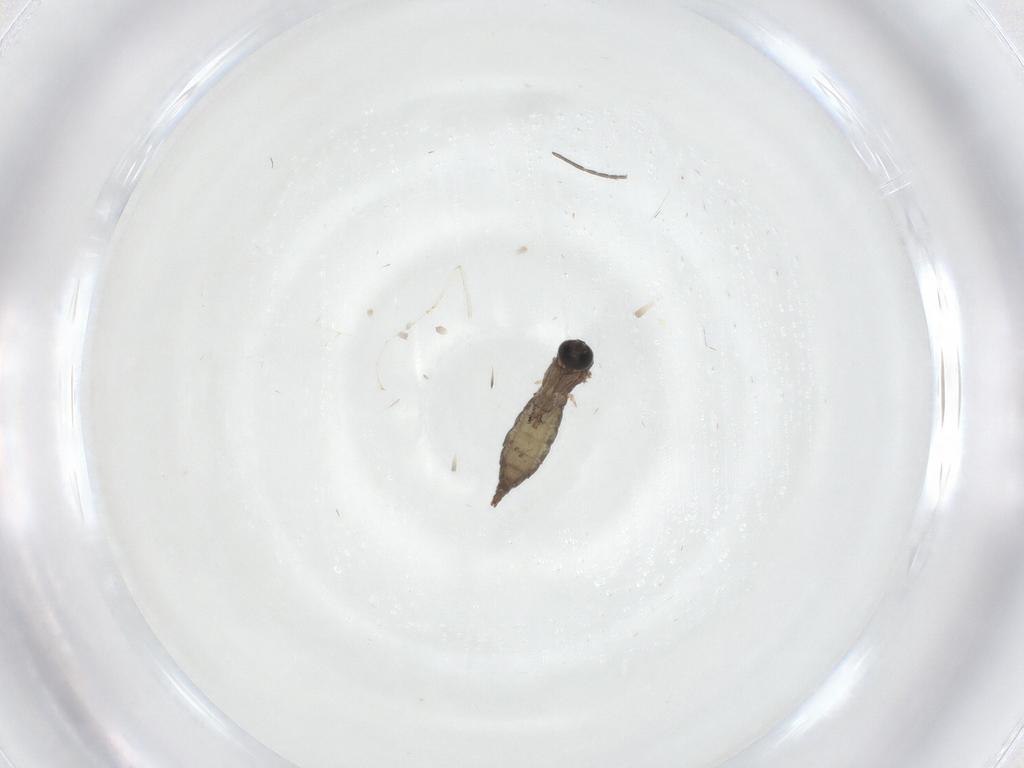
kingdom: Animalia
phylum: Arthropoda
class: Insecta
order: Diptera
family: Sciaridae
